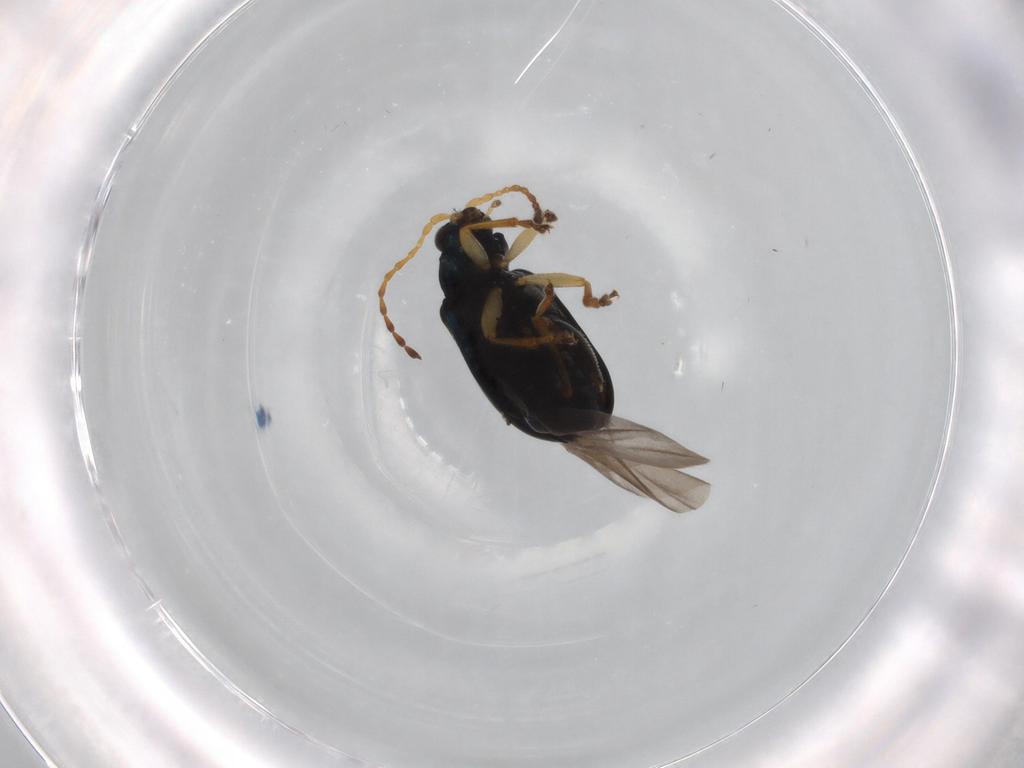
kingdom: Animalia
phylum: Arthropoda
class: Insecta
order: Coleoptera
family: Chrysomelidae
